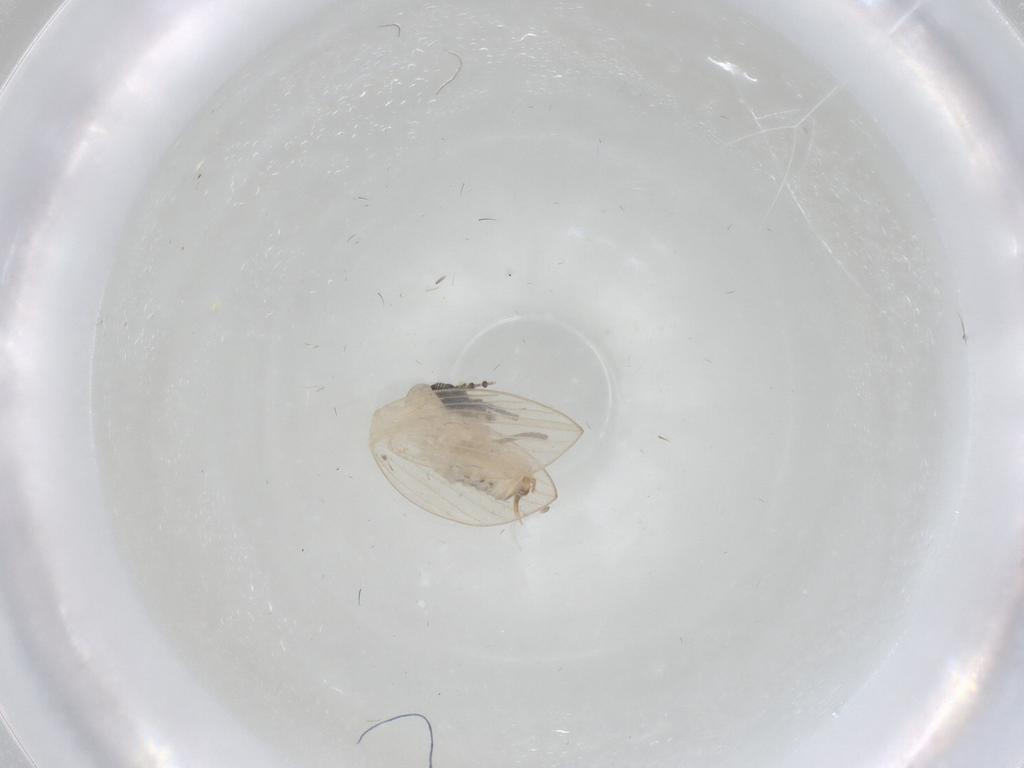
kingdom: Animalia
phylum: Arthropoda
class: Insecta
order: Diptera
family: Psychodidae
